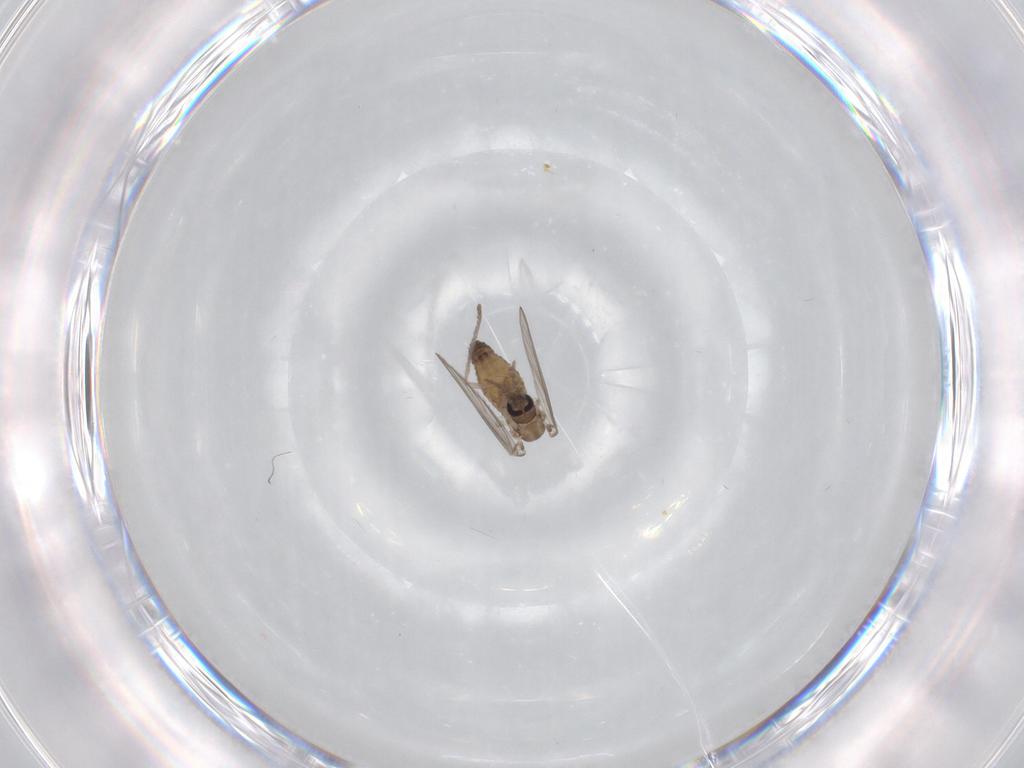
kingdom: Animalia
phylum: Arthropoda
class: Insecta
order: Diptera
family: Psychodidae
